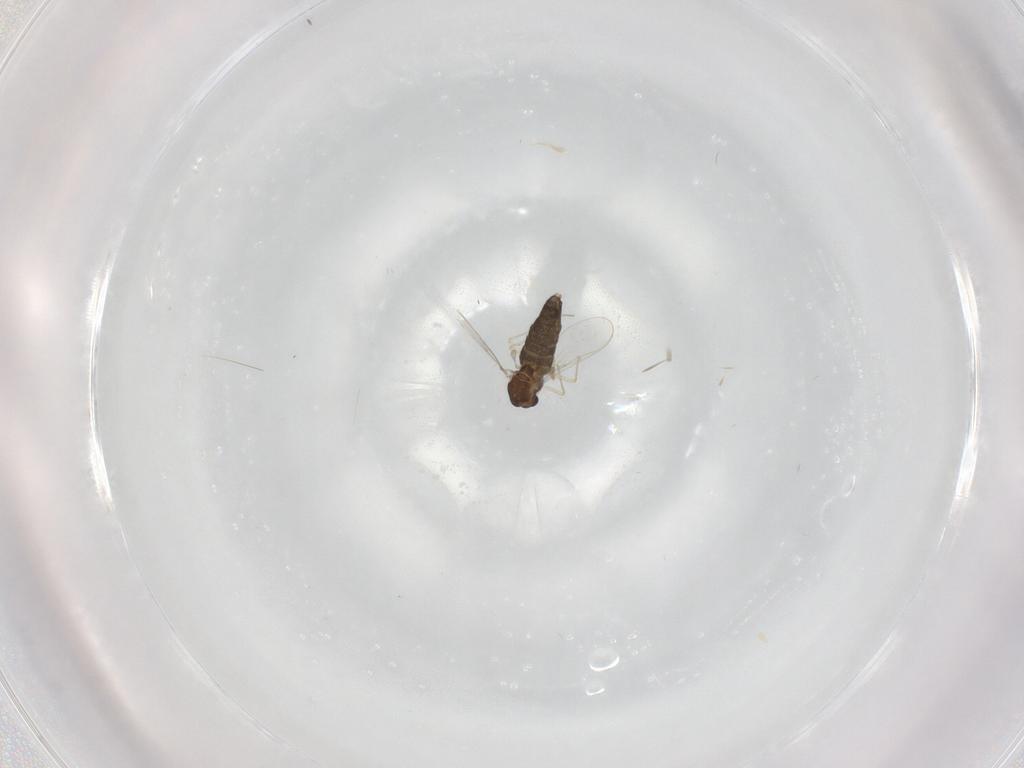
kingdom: Animalia
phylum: Arthropoda
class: Insecta
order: Diptera
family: Chironomidae
